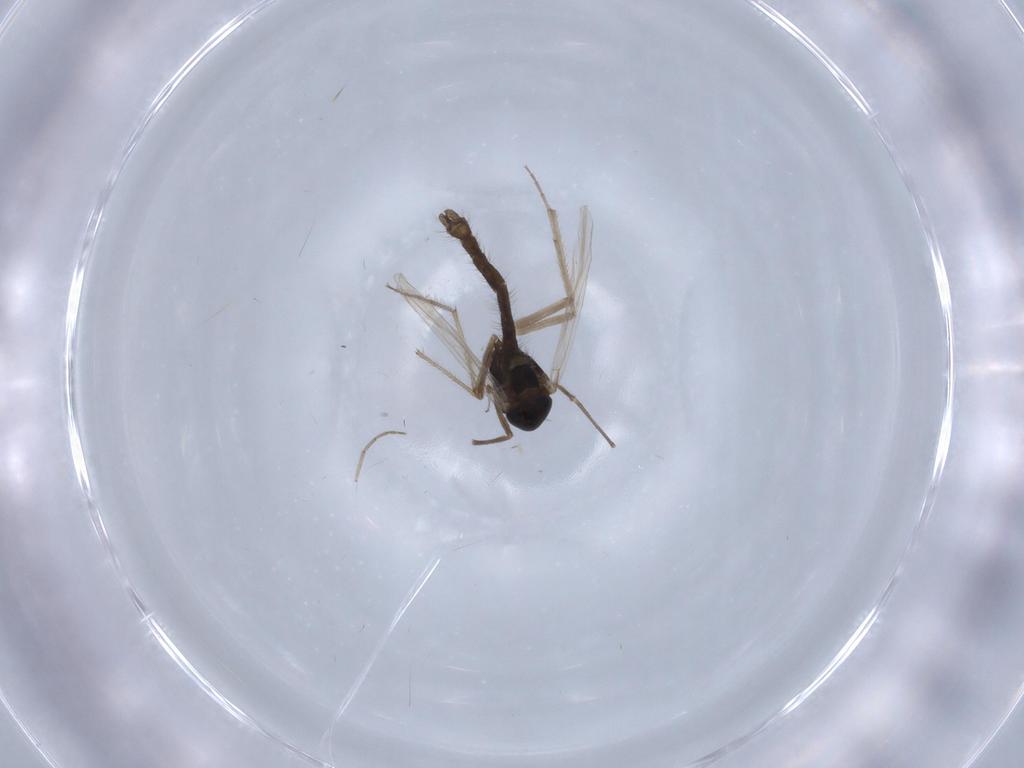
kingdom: Animalia
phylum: Arthropoda
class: Insecta
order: Diptera
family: Chironomidae
